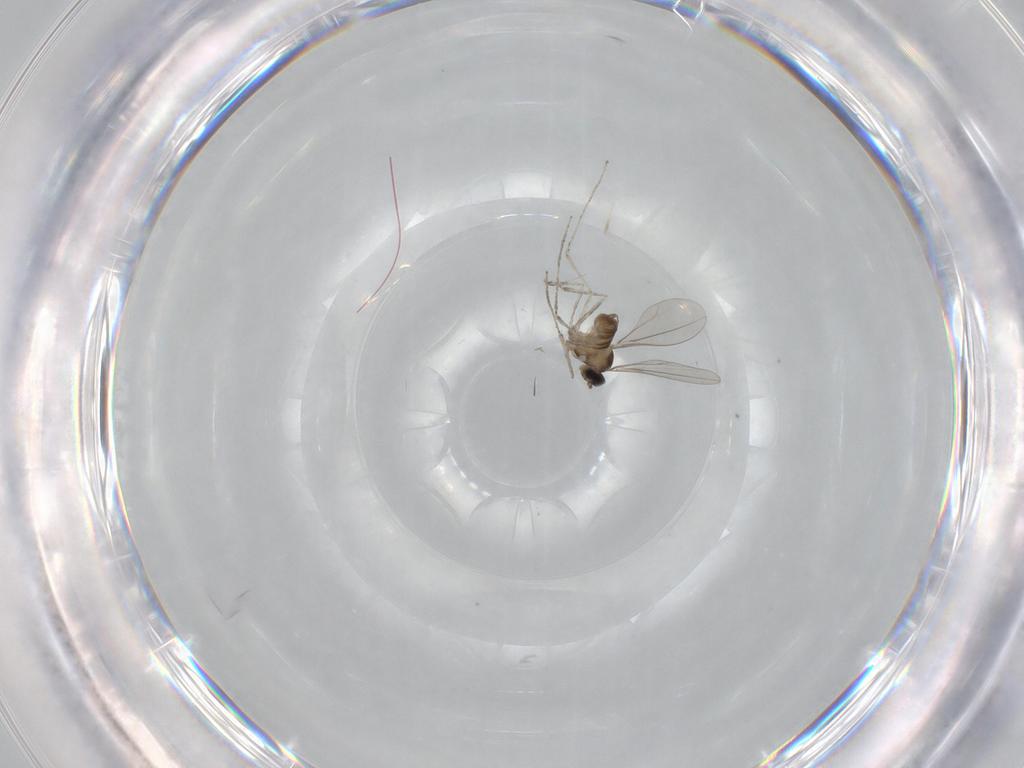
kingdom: Animalia
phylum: Arthropoda
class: Insecta
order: Diptera
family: Cecidomyiidae
